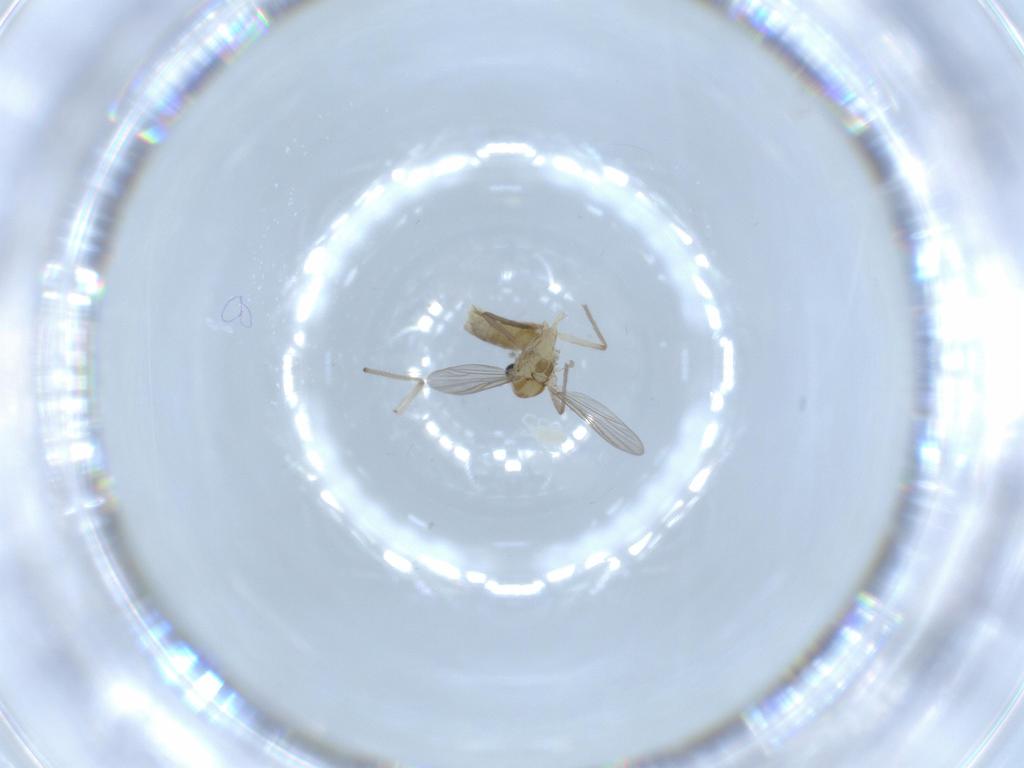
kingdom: Animalia
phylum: Arthropoda
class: Insecta
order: Diptera
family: Chironomidae
